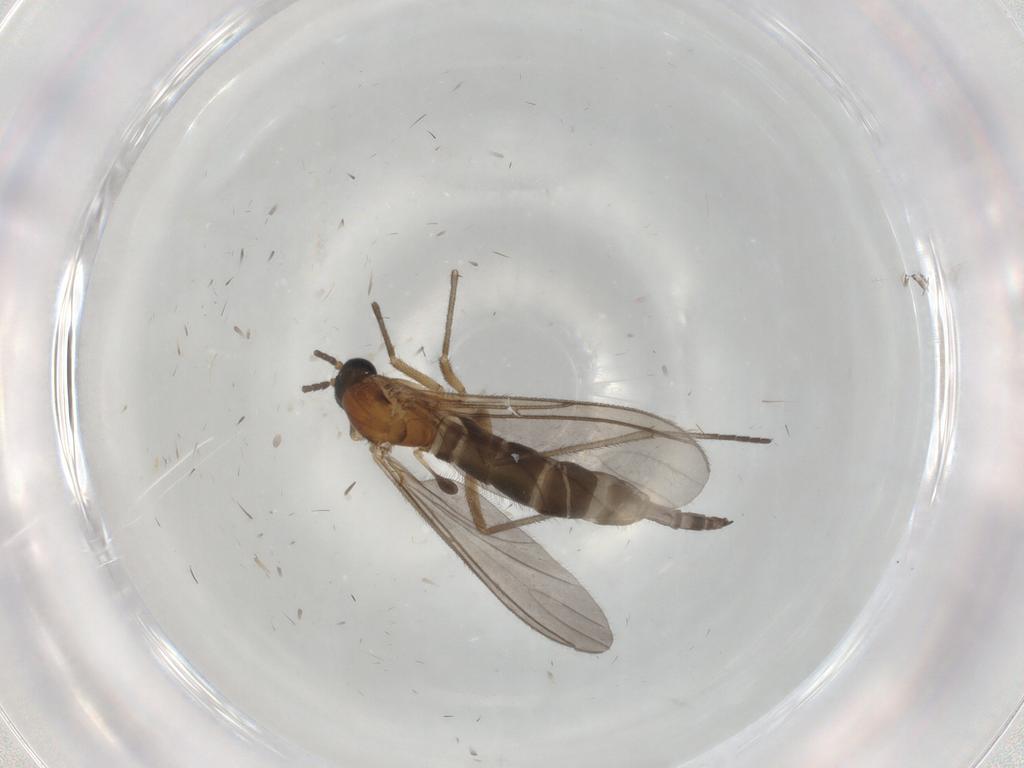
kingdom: Animalia
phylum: Arthropoda
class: Insecta
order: Diptera
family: Sciaridae
